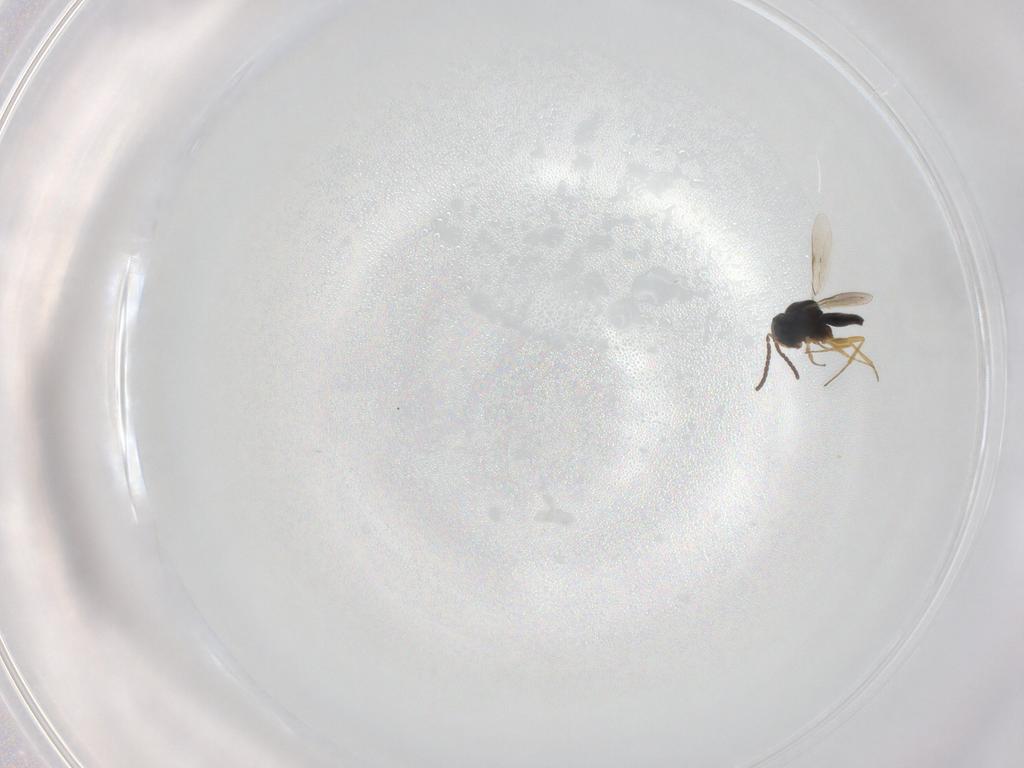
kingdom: Animalia
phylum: Arthropoda
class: Insecta
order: Hymenoptera
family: Scelionidae
